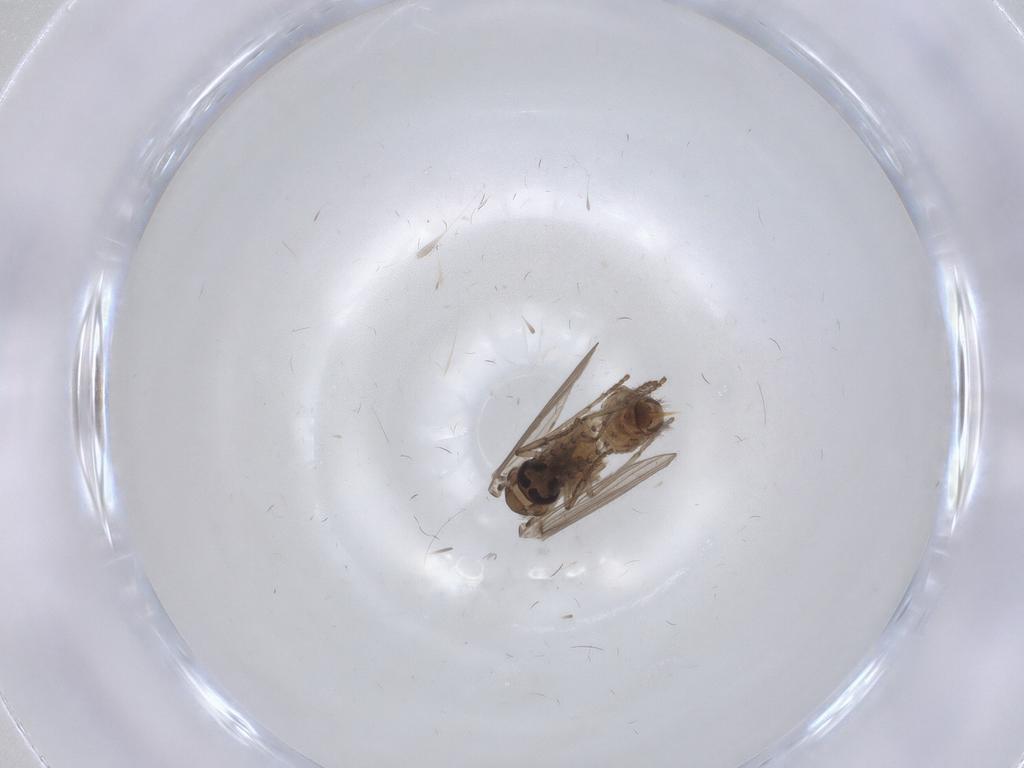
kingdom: Animalia
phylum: Arthropoda
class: Insecta
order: Diptera
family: Psychodidae
